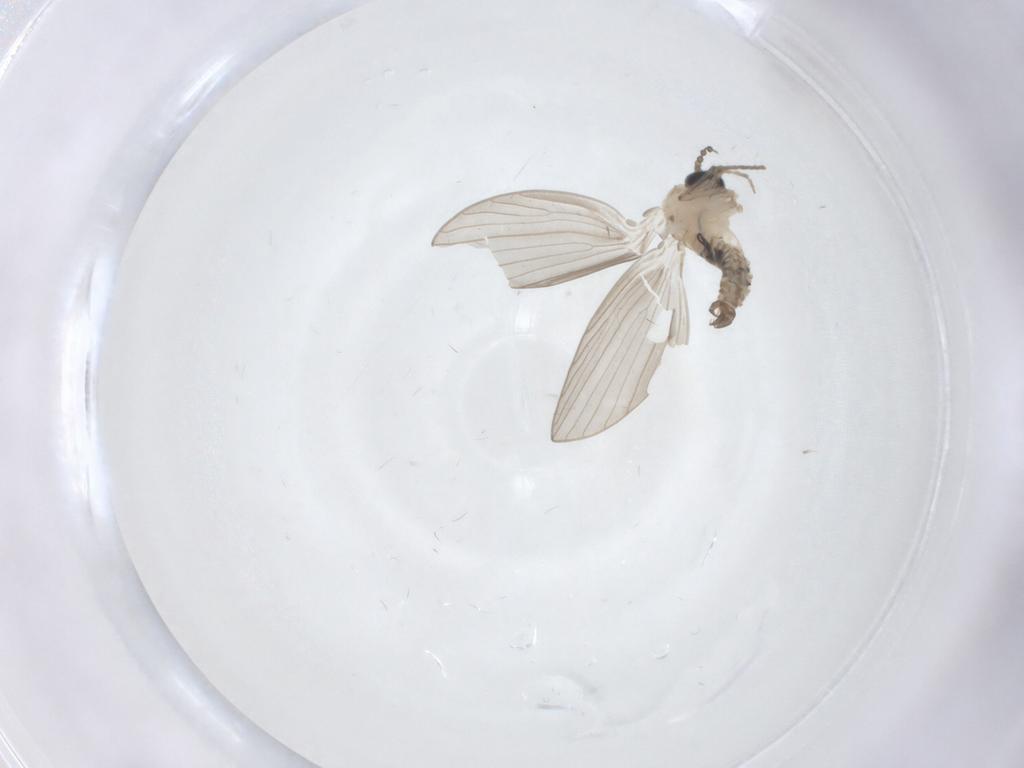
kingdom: Animalia
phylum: Arthropoda
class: Insecta
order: Diptera
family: Psychodidae
